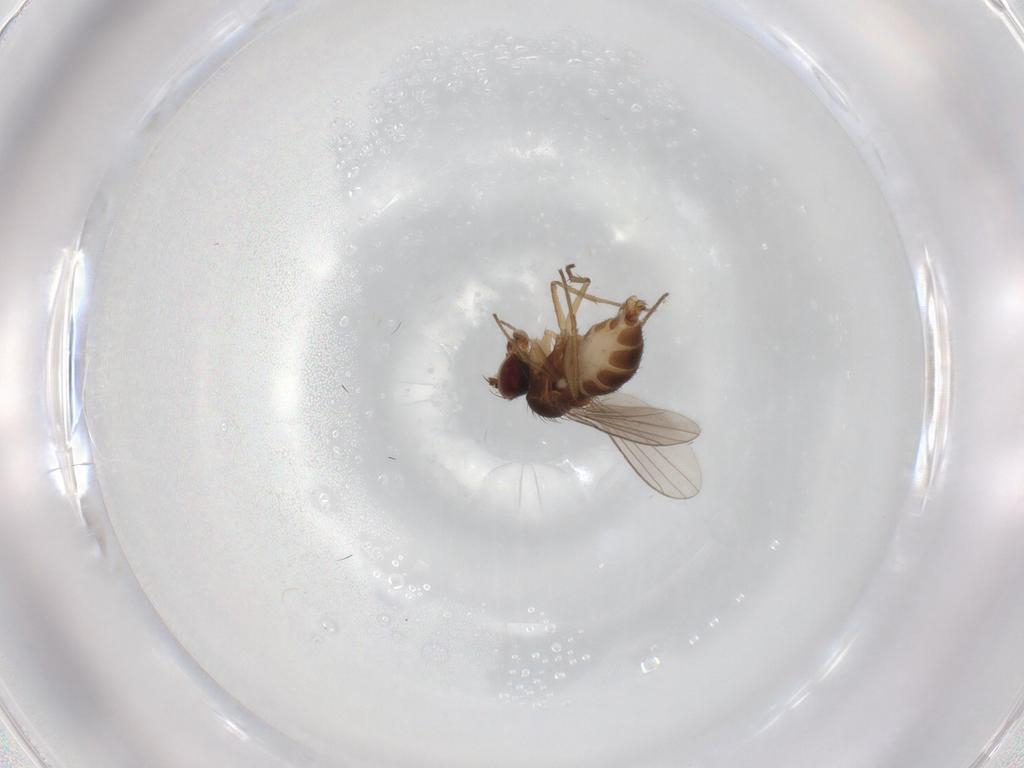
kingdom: Animalia
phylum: Arthropoda
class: Insecta
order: Diptera
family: Dolichopodidae
